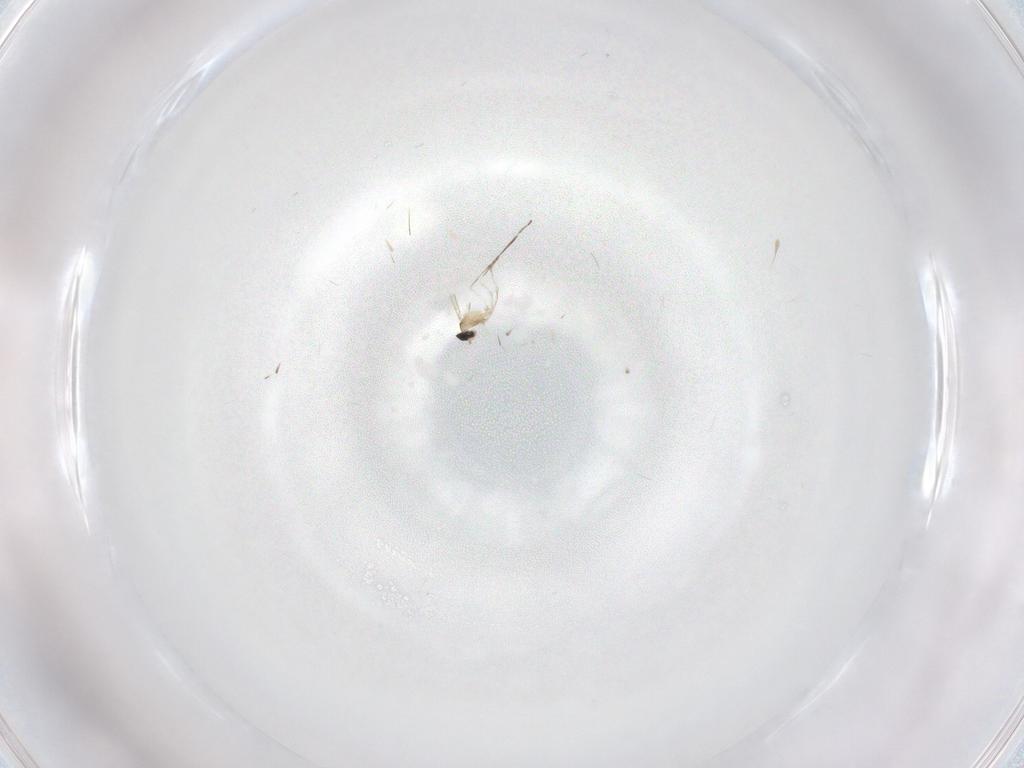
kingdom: Animalia
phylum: Arthropoda
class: Insecta
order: Diptera
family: Cecidomyiidae
